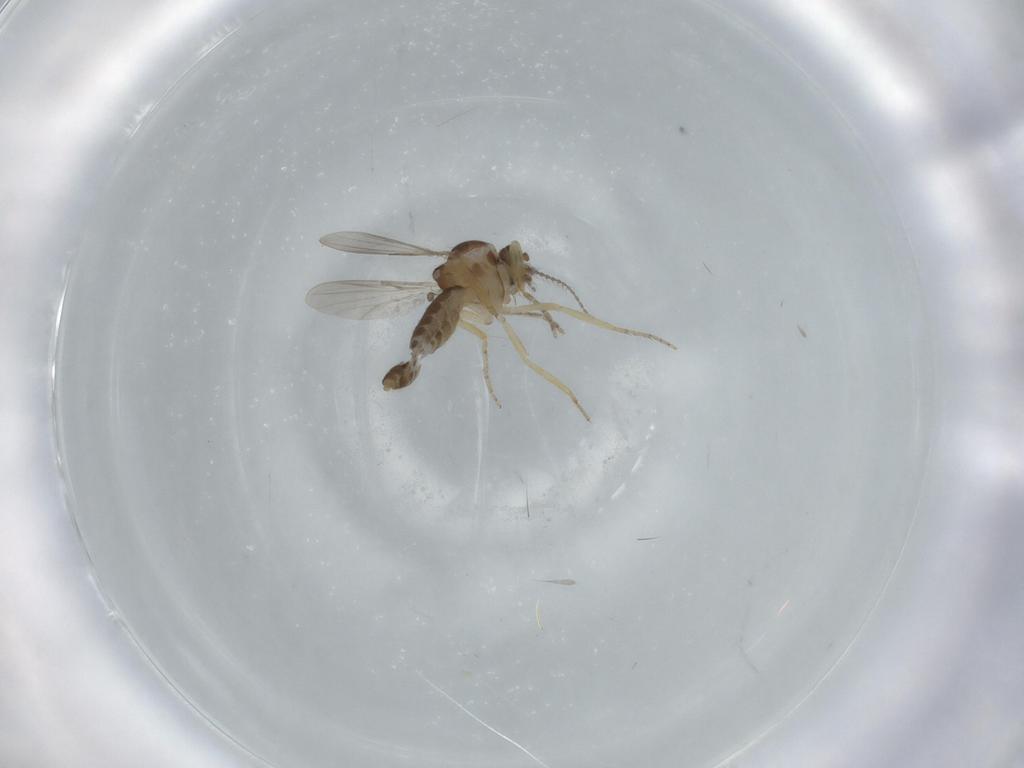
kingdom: Animalia
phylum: Arthropoda
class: Insecta
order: Diptera
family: Ceratopogonidae
